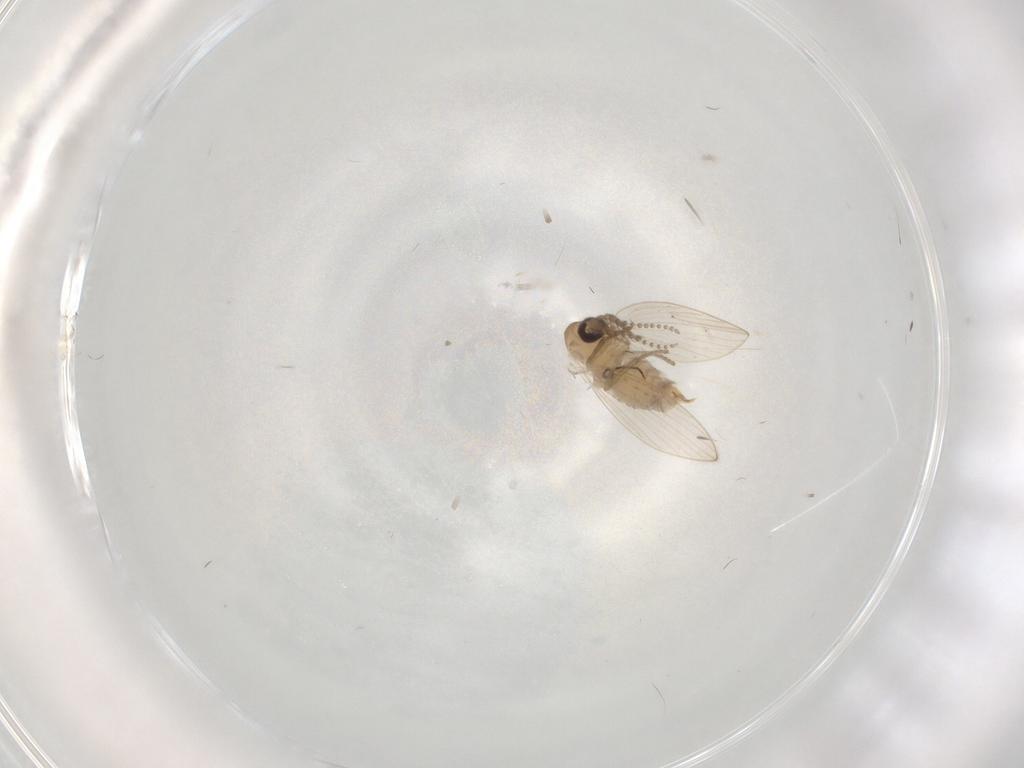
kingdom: Animalia
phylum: Arthropoda
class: Insecta
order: Diptera
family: Psychodidae
